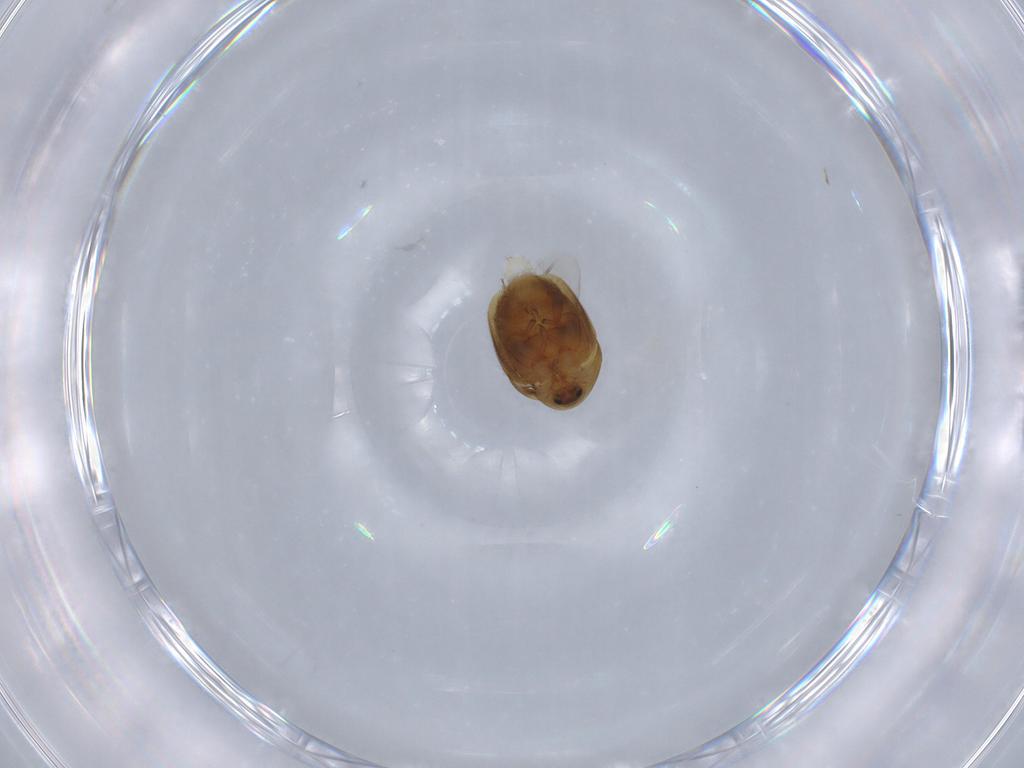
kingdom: Animalia
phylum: Arthropoda
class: Insecta
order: Coleoptera
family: Corylophidae
